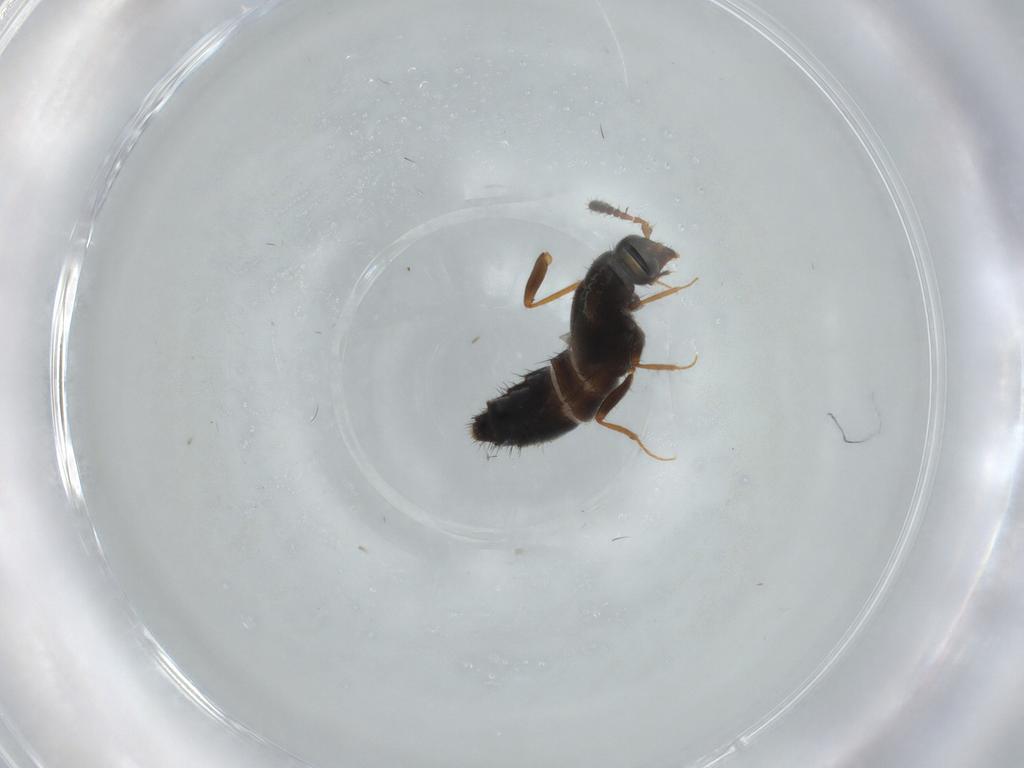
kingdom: Animalia
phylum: Arthropoda
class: Insecta
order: Coleoptera
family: Staphylinidae
